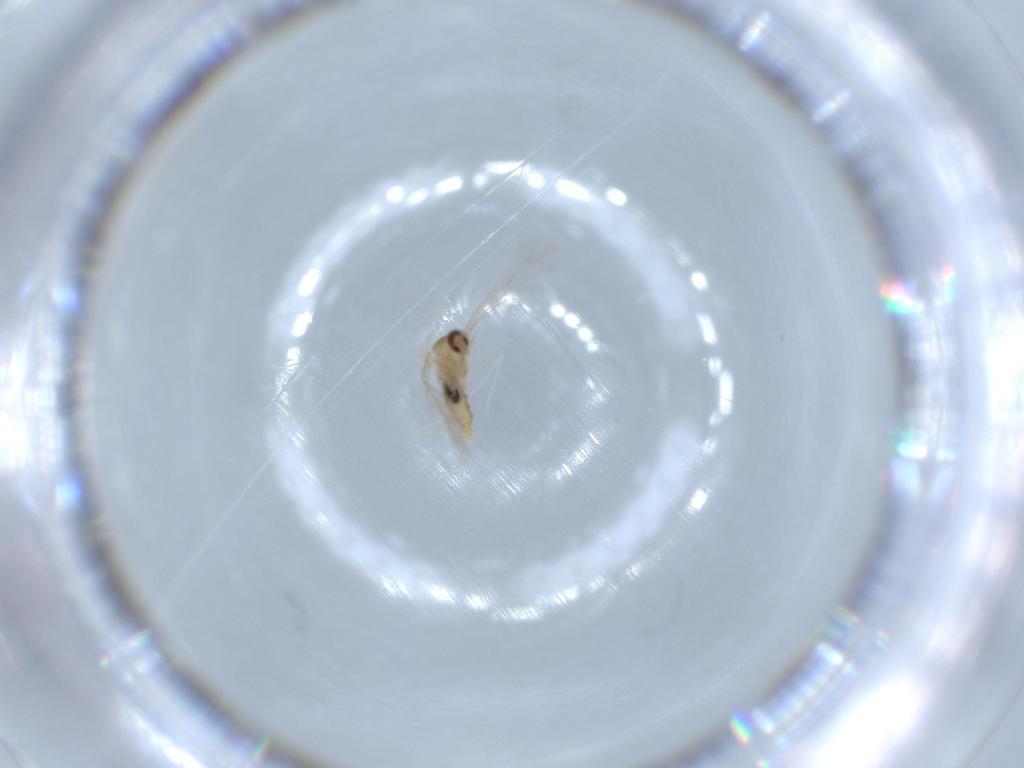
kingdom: Animalia
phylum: Arthropoda
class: Insecta
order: Diptera
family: Cecidomyiidae
